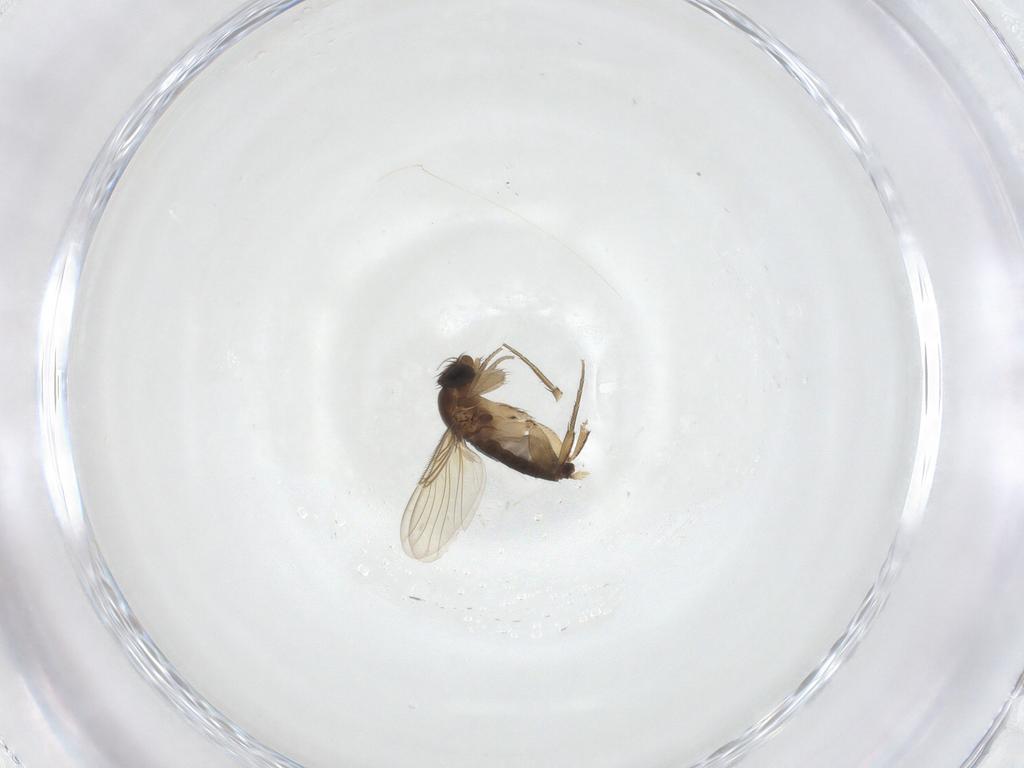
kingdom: Animalia
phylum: Arthropoda
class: Insecta
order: Diptera
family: Phoridae
